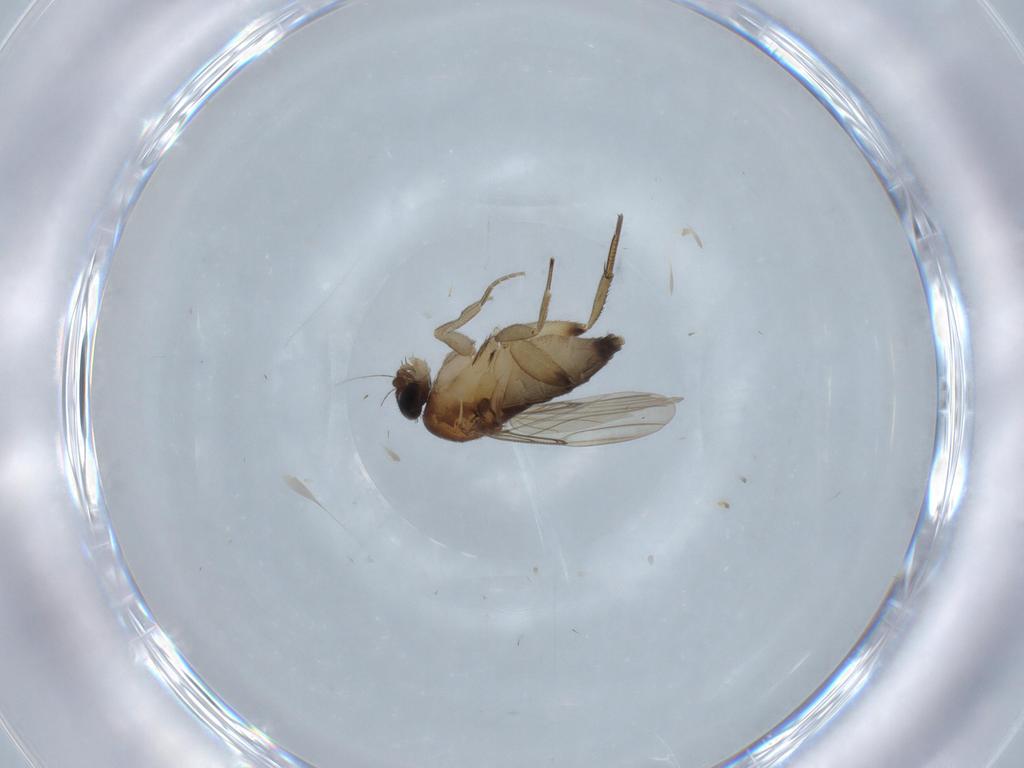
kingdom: Animalia
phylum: Arthropoda
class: Insecta
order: Diptera
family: Phoridae
